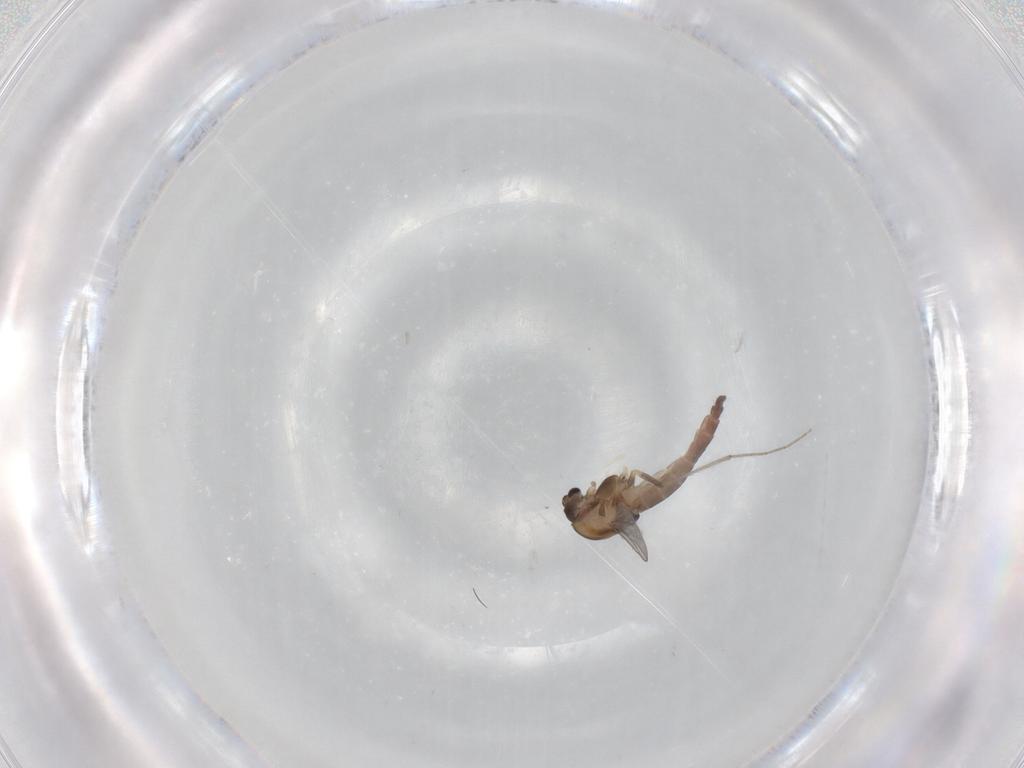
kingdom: Animalia
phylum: Arthropoda
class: Insecta
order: Diptera
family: Chironomidae
